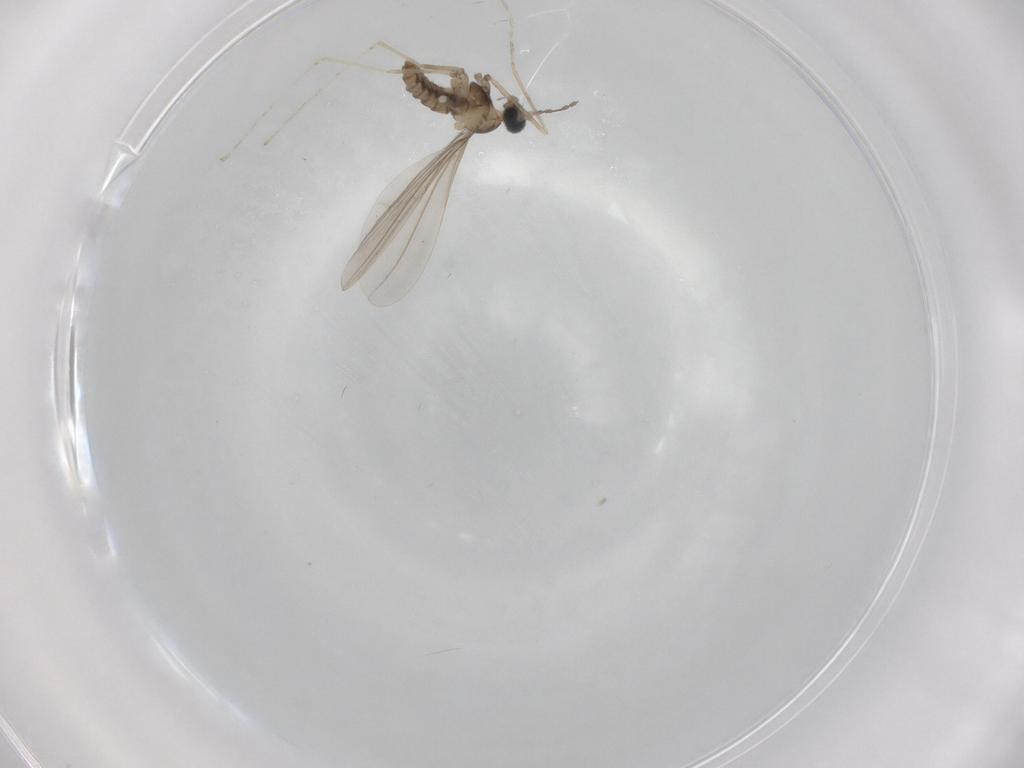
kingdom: Animalia
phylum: Arthropoda
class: Insecta
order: Diptera
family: Cecidomyiidae
